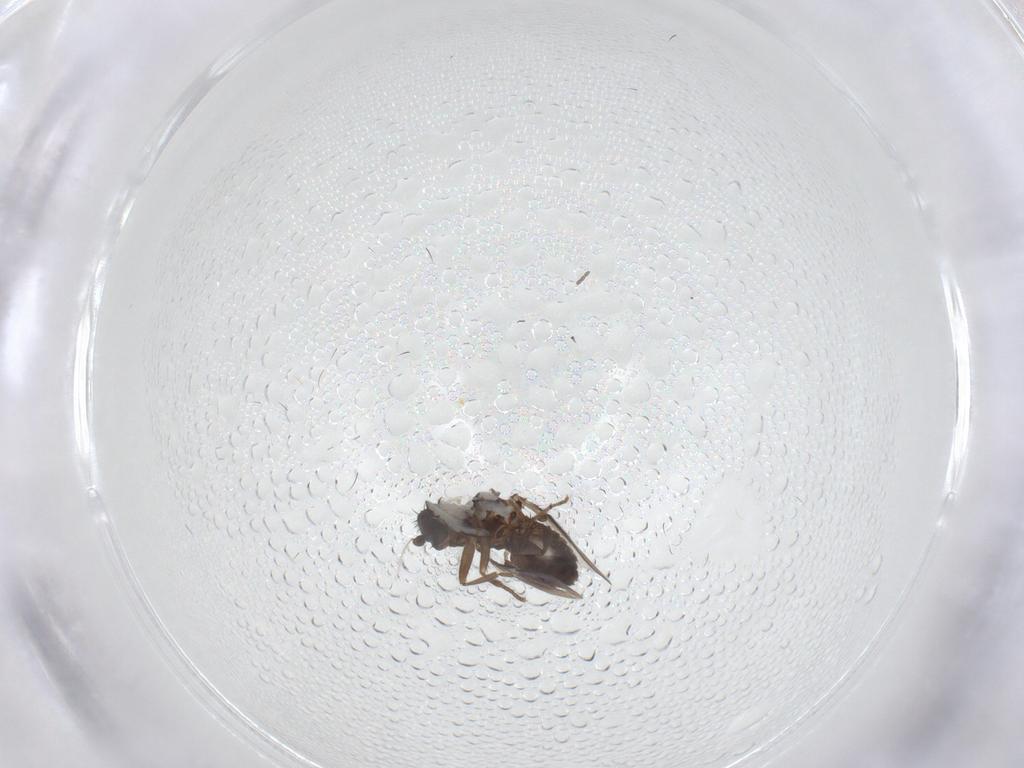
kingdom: Animalia
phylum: Arthropoda
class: Insecta
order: Diptera
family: Sphaeroceridae
